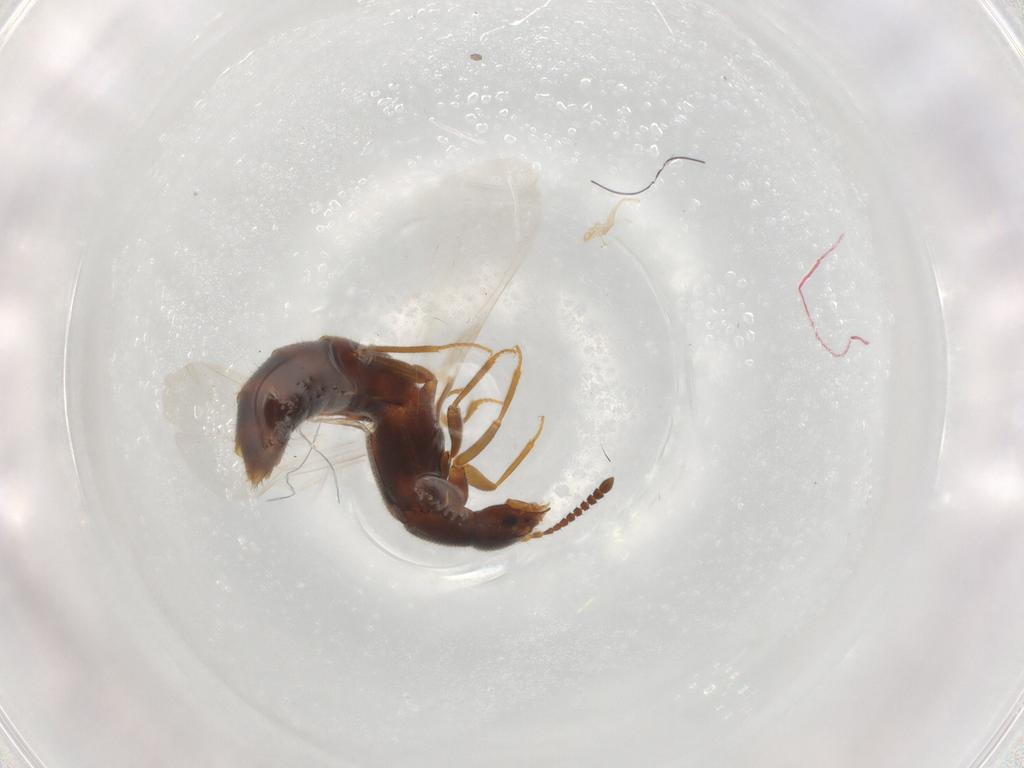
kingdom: Animalia
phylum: Arthropoda
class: Insecta
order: Coleoptera
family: Staphylinidae
